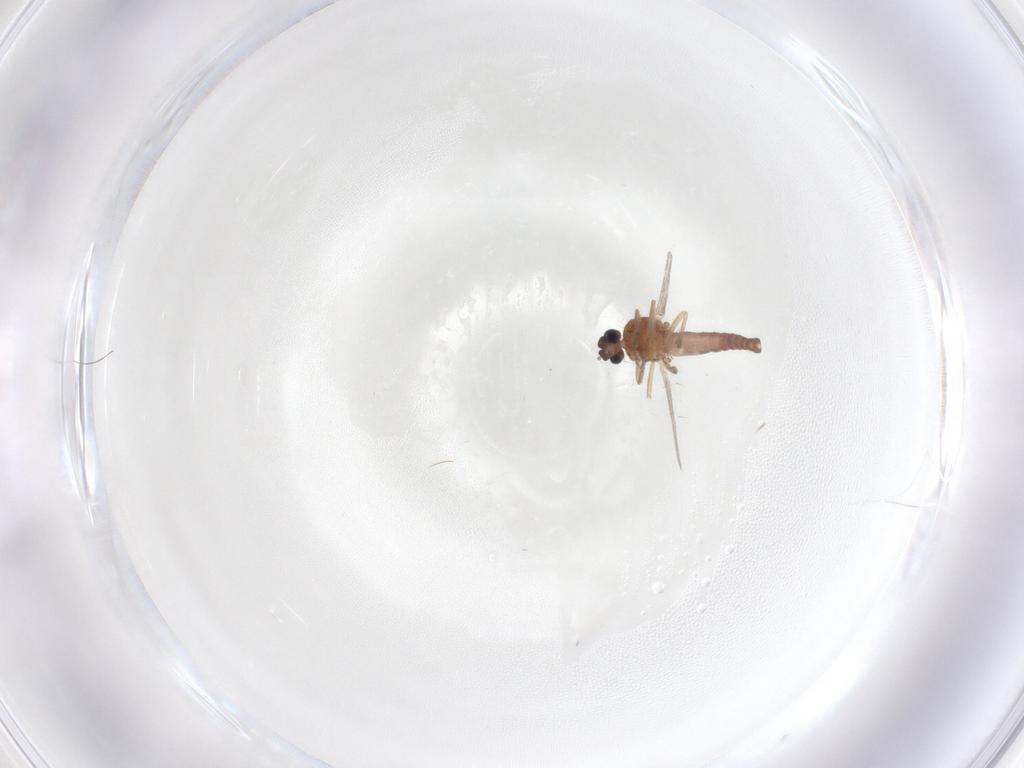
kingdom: Animalia
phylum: Arthropoda
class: Insecta
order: Diptera
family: Ceratopogonidae
